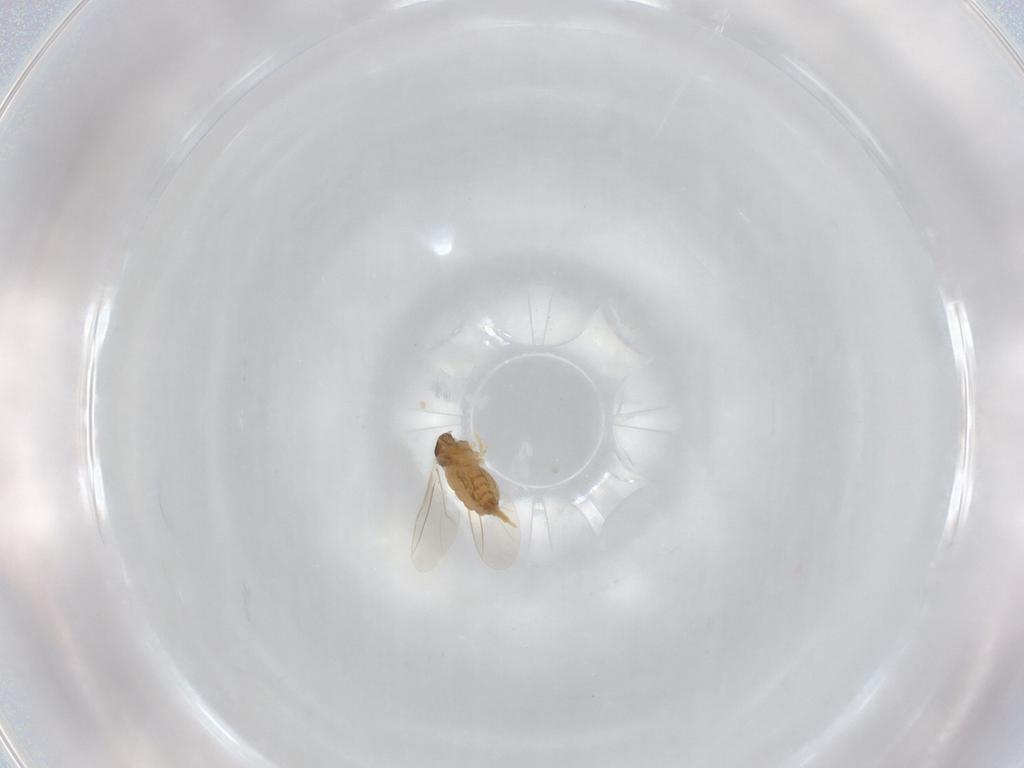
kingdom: Animalia
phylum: Arthropoda
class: Insecta
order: Diptera
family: Cecidomyiidae
